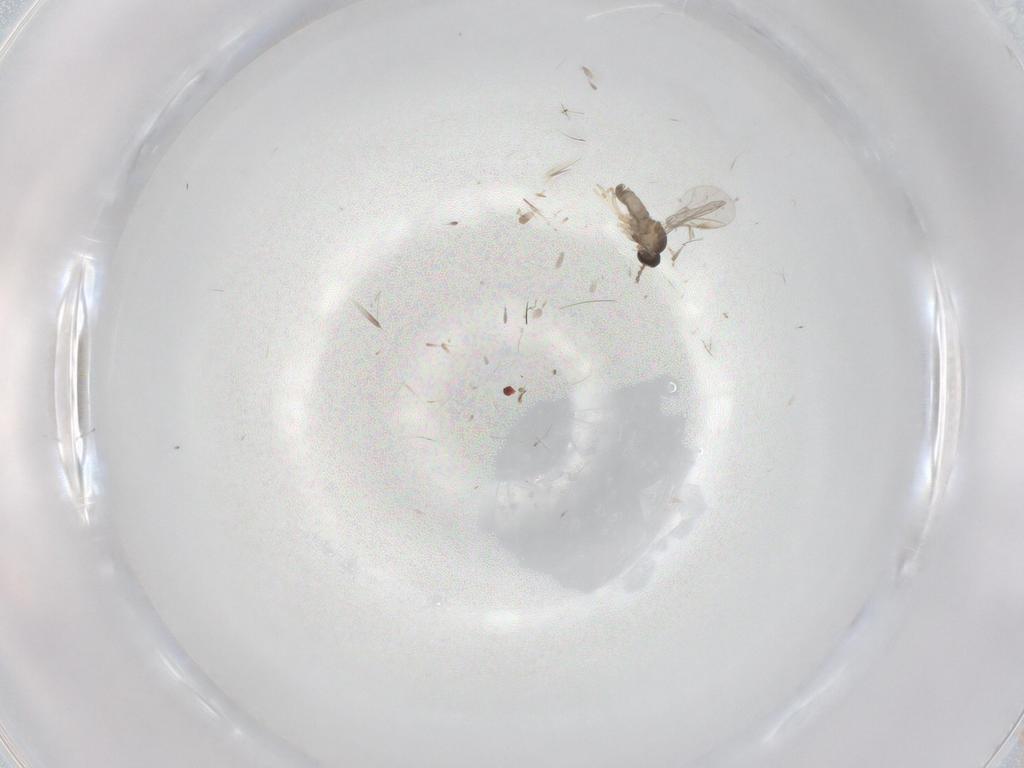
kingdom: Animalia
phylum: Arthropoda
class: Insecta
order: Diptera
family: Cecidomyiidae
